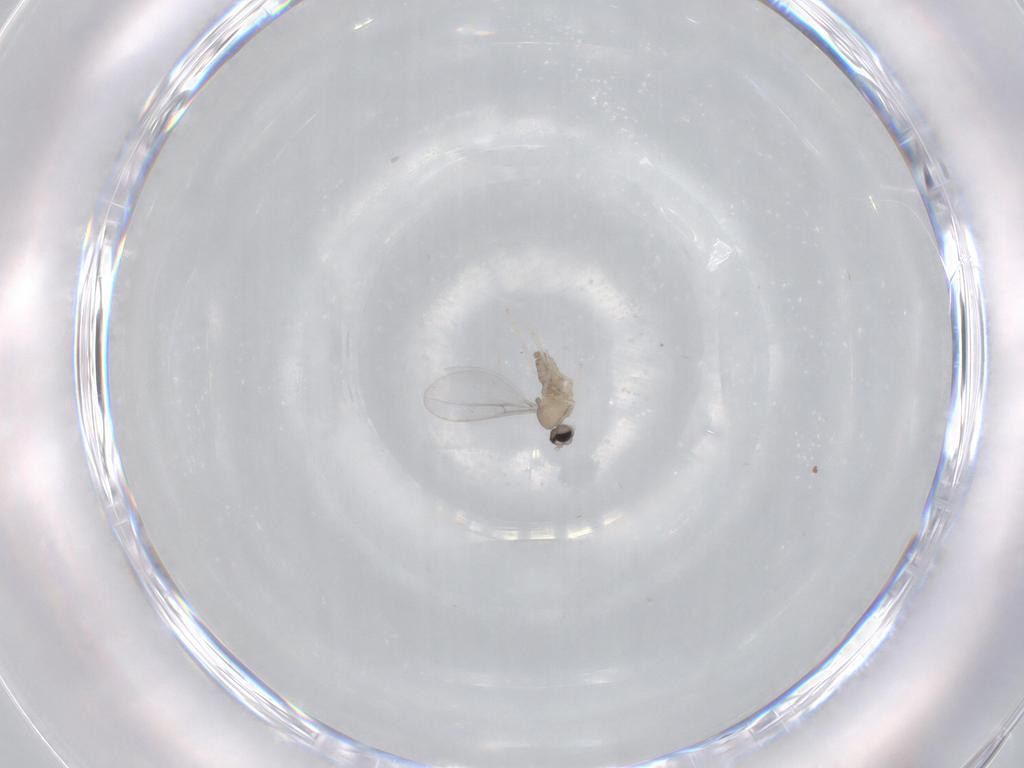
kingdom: Animalia
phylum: Arthropoda
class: Insecta
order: Diptera
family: Cecidomyiidae
